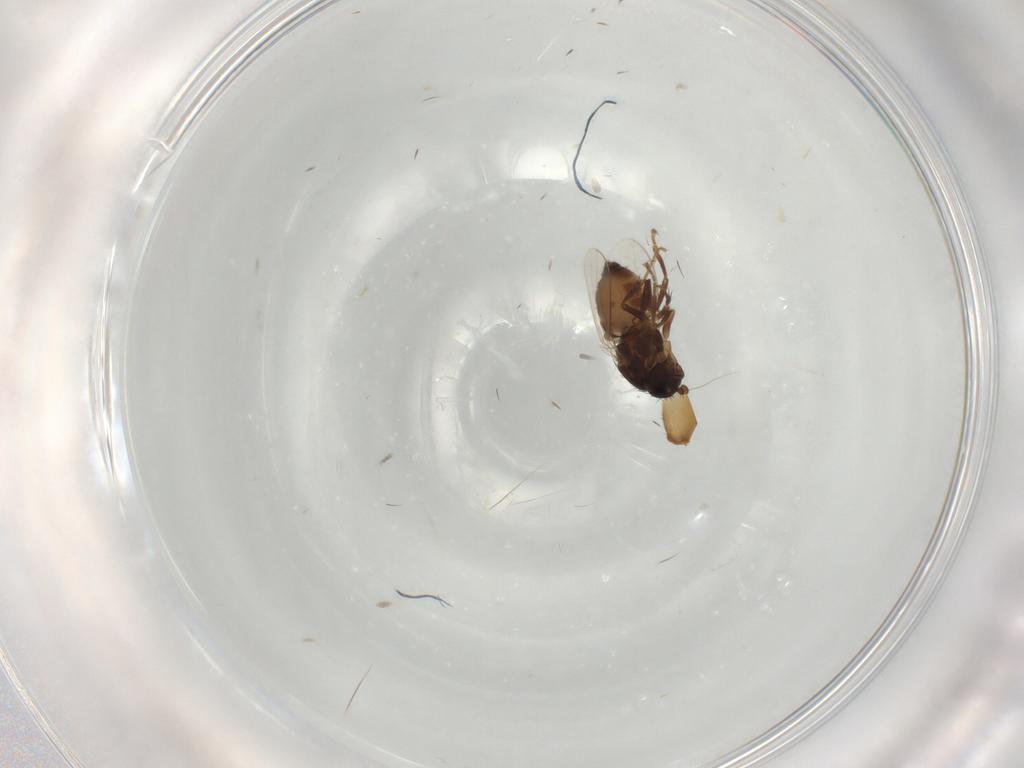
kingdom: Animalia
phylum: Arthropoda
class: Insecta
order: Diptera
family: Sphaeroceridae
